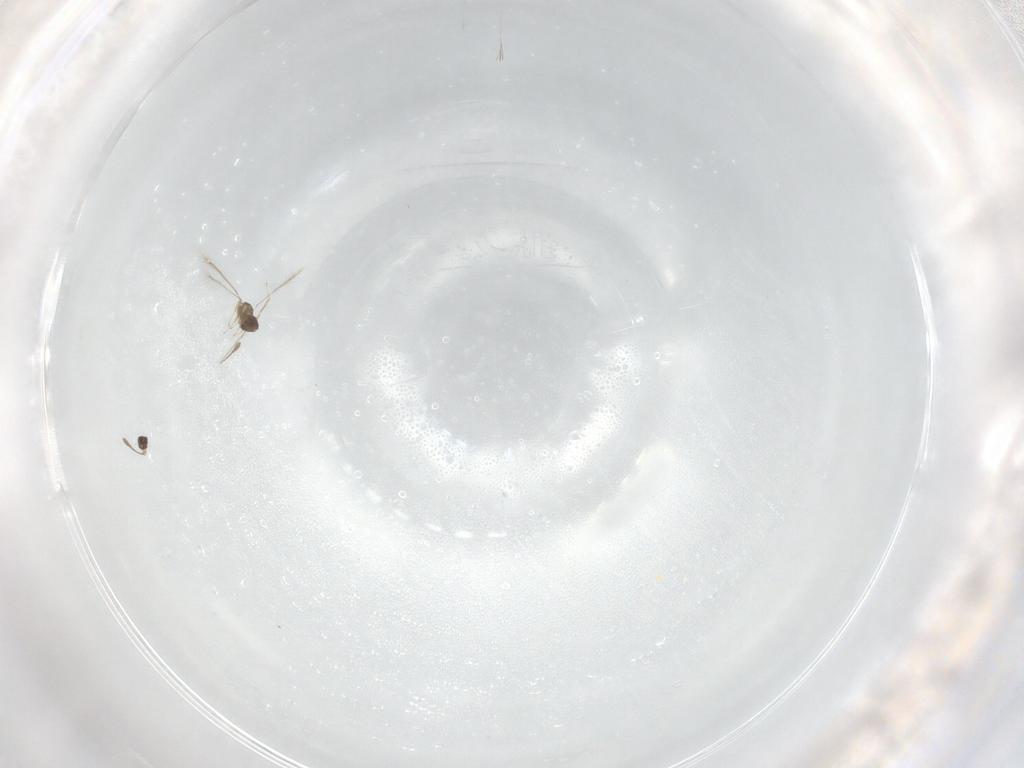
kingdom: Animalia
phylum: Arthropoda
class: Insecta
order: Hymenoptera
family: Mymaridae
